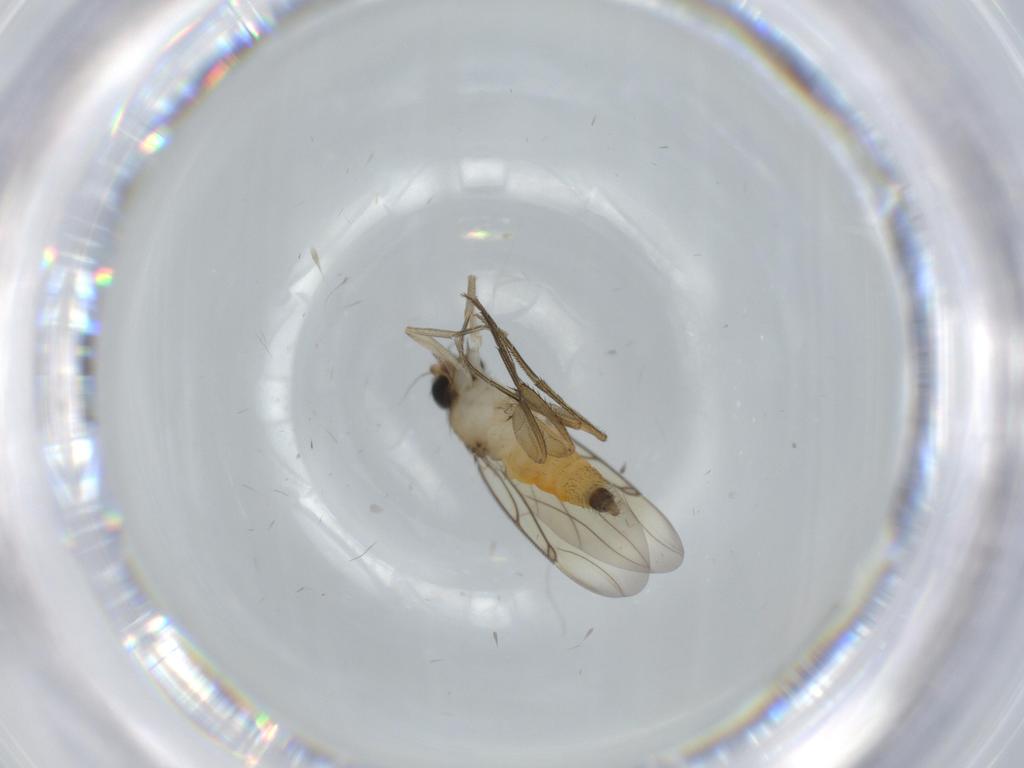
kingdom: Animalia
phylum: Arthropoda
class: Insecta
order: Diptera
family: Phoridae
